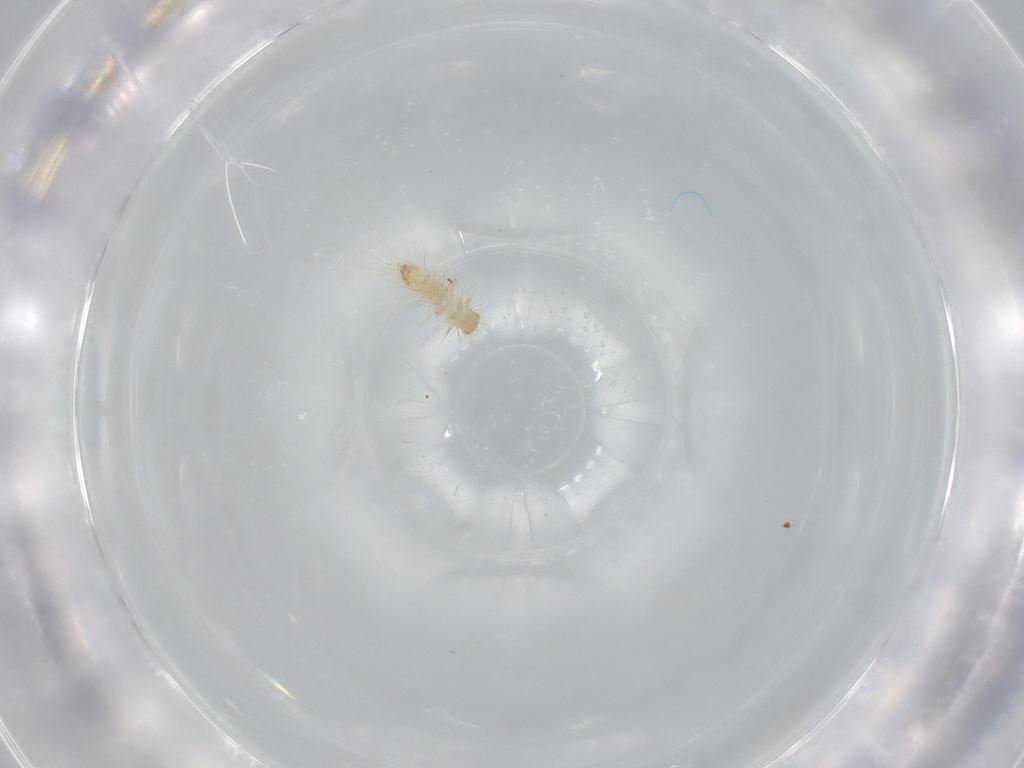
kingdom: Animalia
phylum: Arthropoda
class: Insecta
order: Coleoptera
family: Dermestidae
